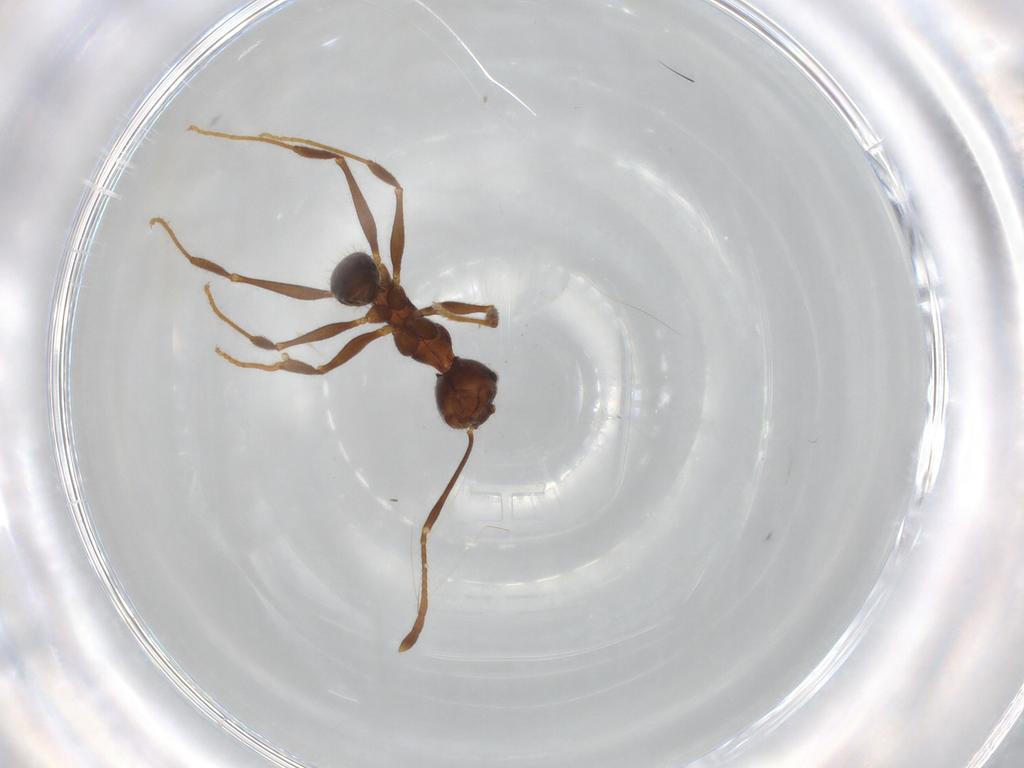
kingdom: Animalia
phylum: Arthropoda
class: Insecta
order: Hymenoptera
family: Formicidae
